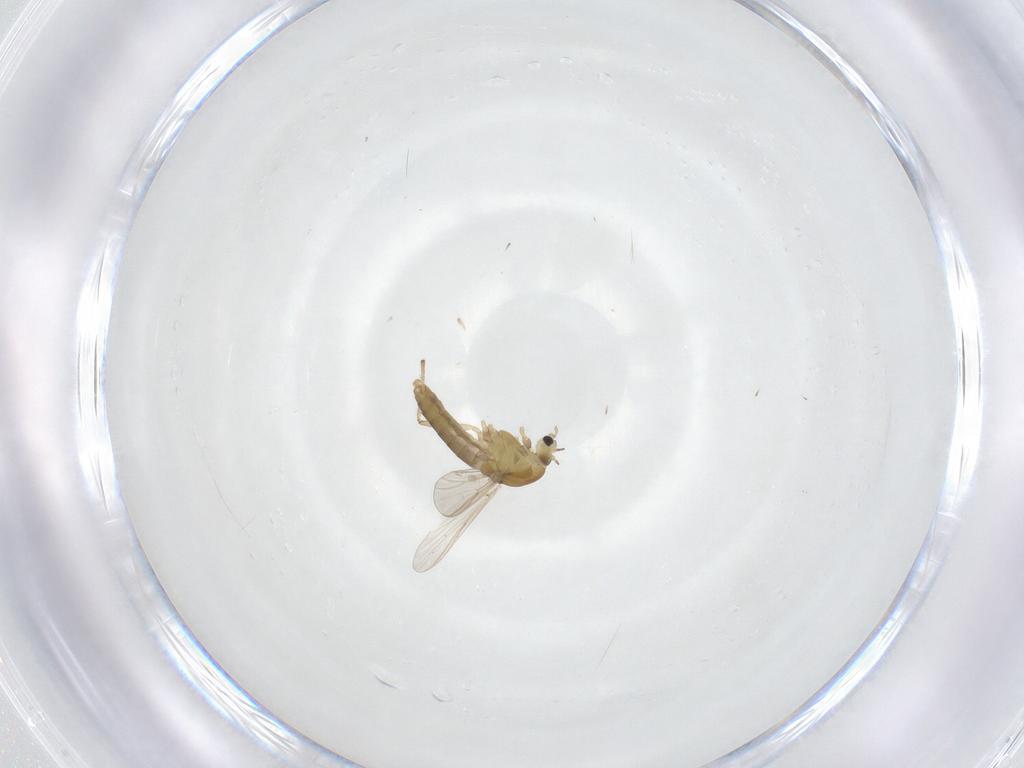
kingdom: Animalia
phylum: Arthropoda
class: Insecta
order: Diptera
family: Chironomidae
